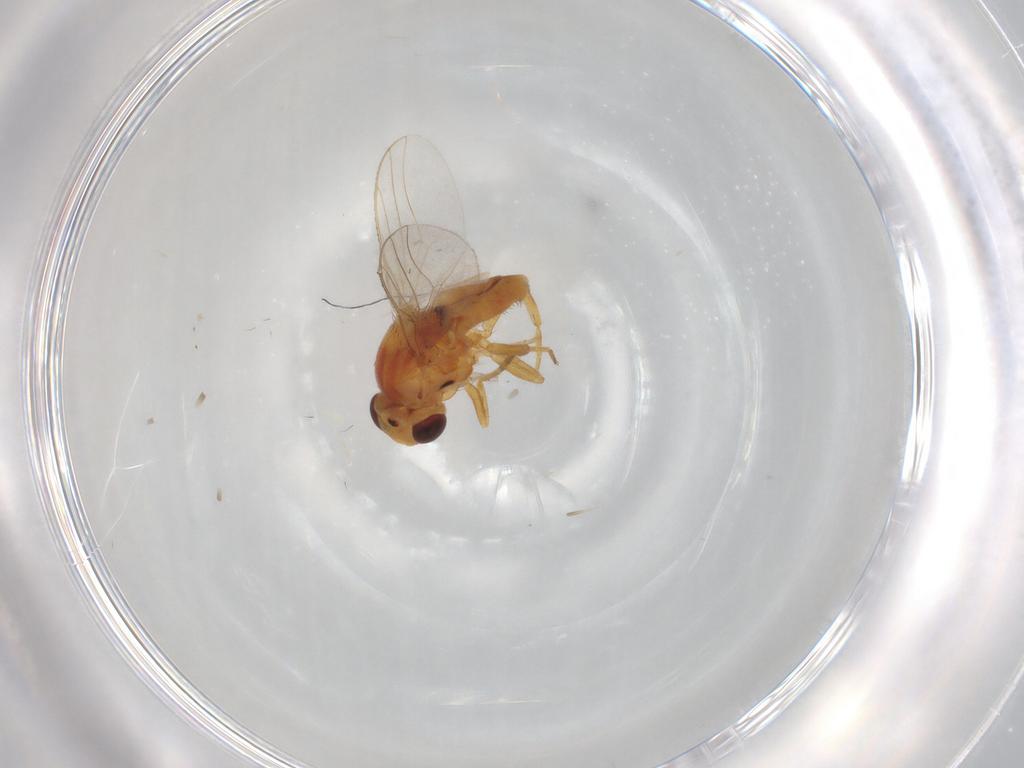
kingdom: Animalia
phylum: Arthropoda
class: Insecta
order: Diptera
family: Chloropidae
